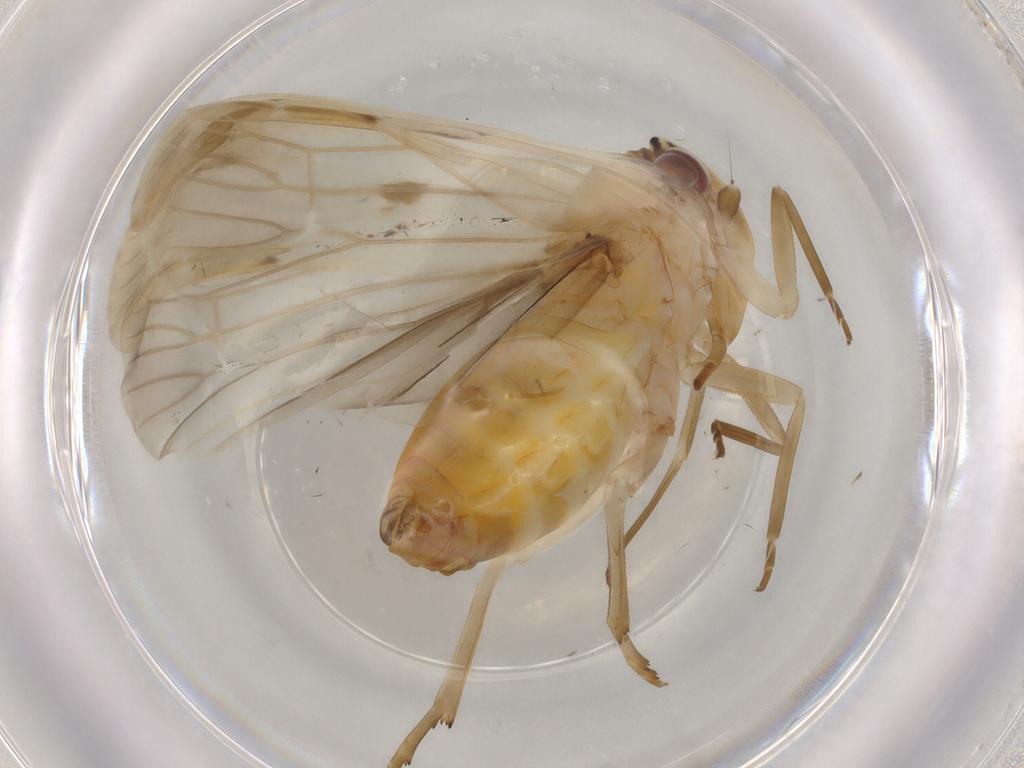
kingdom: Animalia
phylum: Arthropoda
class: Insecta
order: Hemiptera
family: Achilidae
